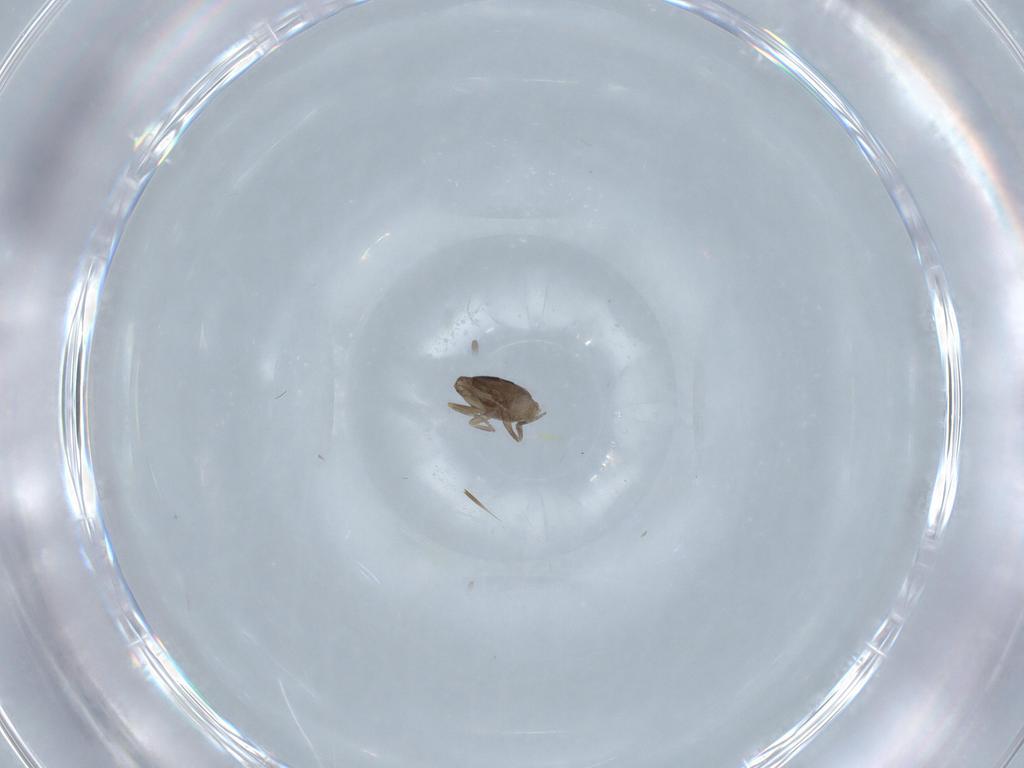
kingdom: Animalia
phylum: Arthropoda
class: Insecta
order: Diptera
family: Phoridae
